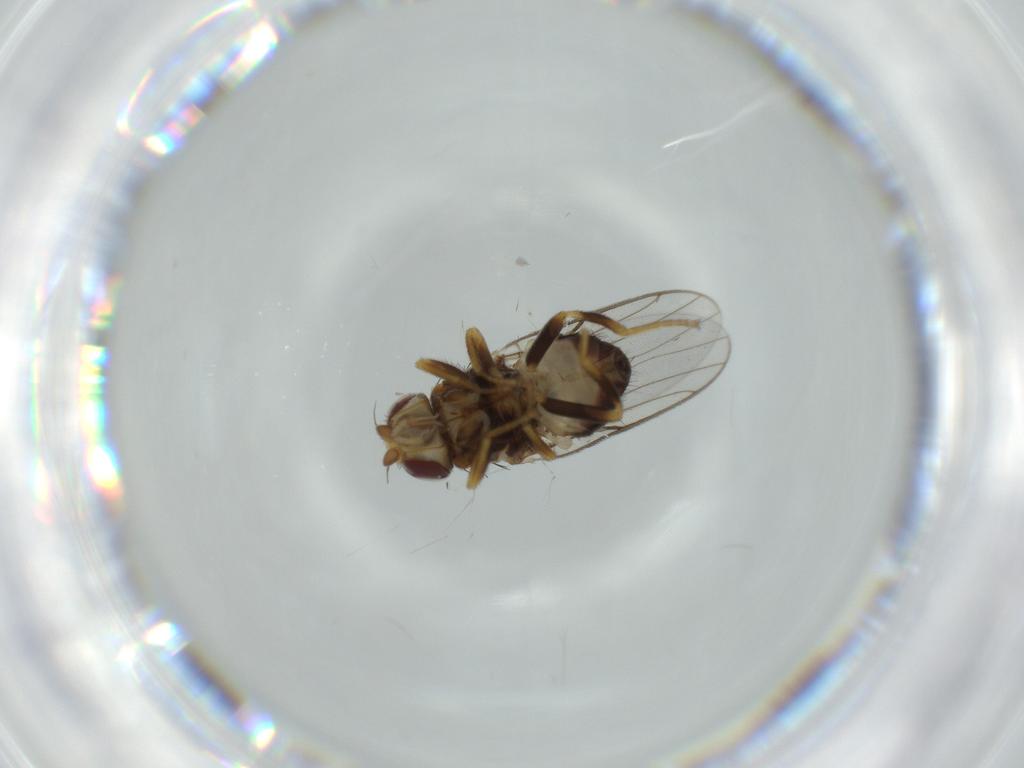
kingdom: Animalia
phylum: Arthropoda
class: Insecta
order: Diptera
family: Chloropidae
